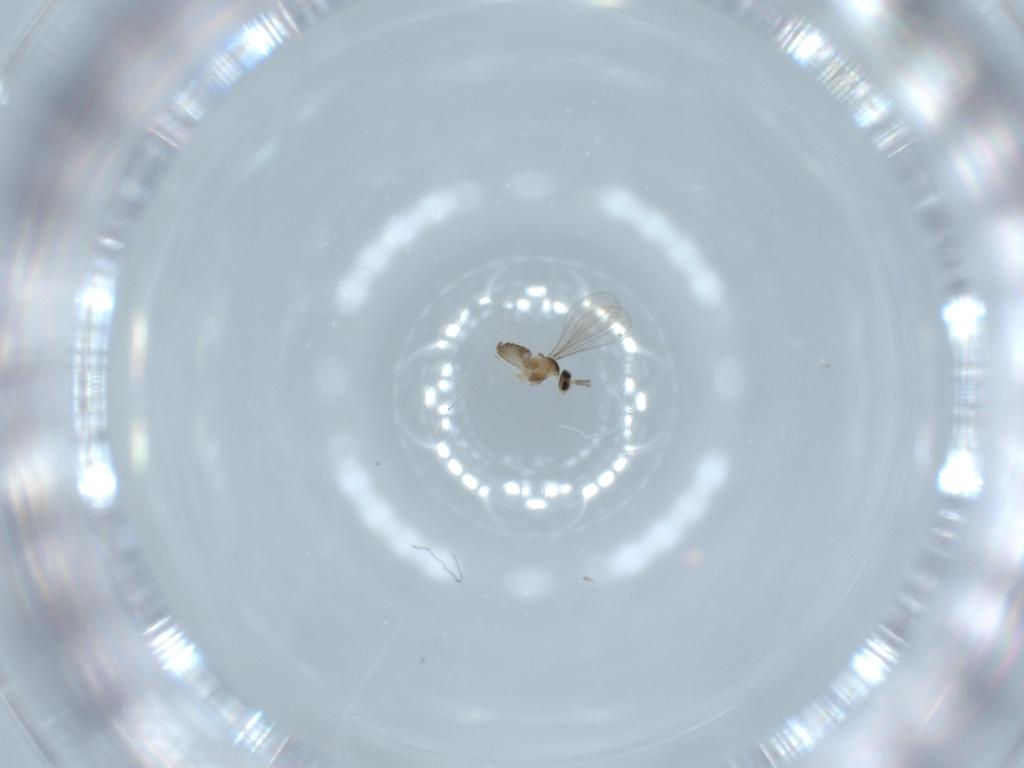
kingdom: Animalia
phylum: Arthropoda
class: Insecta
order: Diptera
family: Cecidomyiidae
